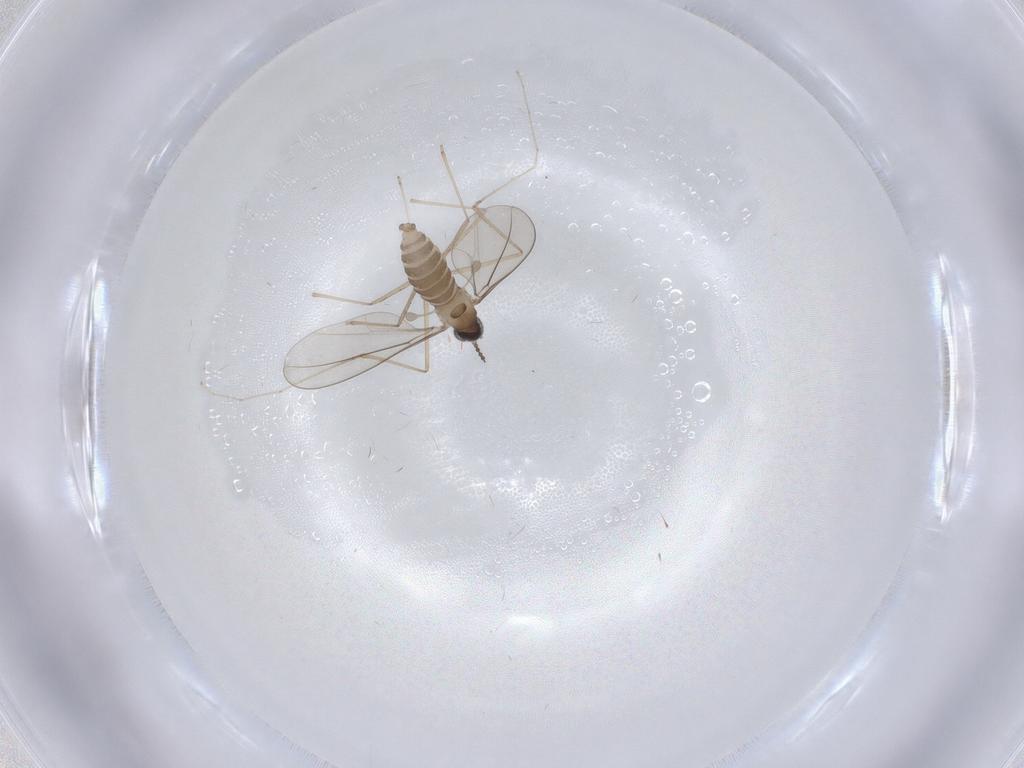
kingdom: Animalia
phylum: Arthropoda
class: Insecta
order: Diptera
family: Cecidomyiidae
